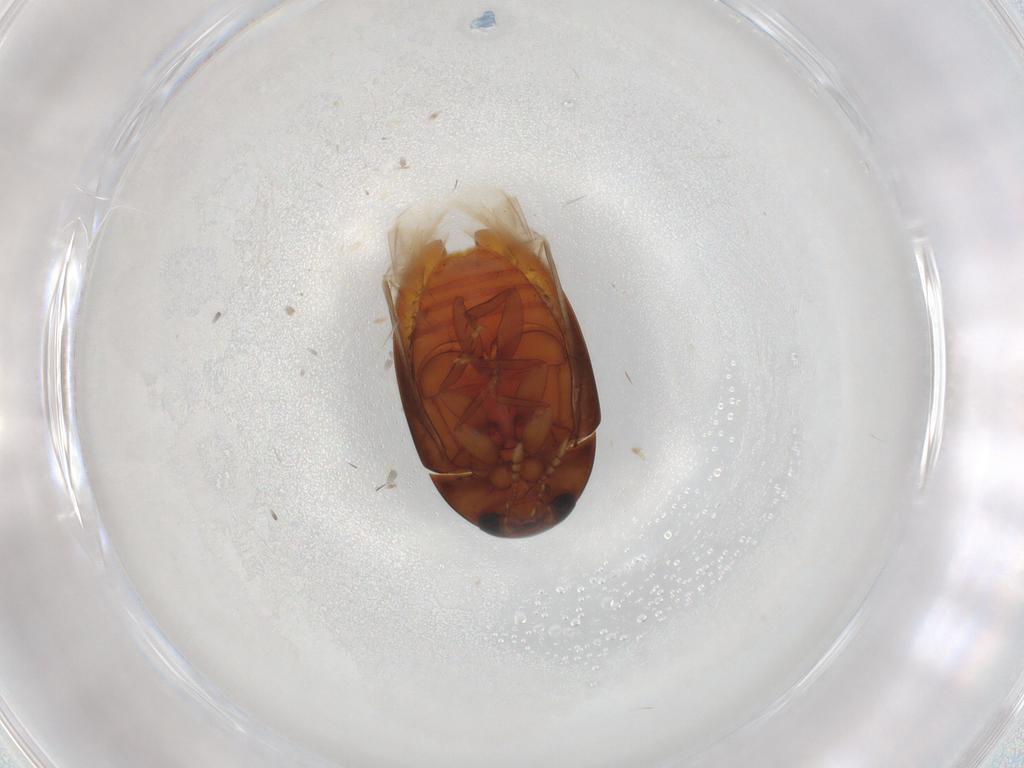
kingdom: Animalia
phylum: Arthropoda
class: Insecta
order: Coleoptera
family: Phalacridae
